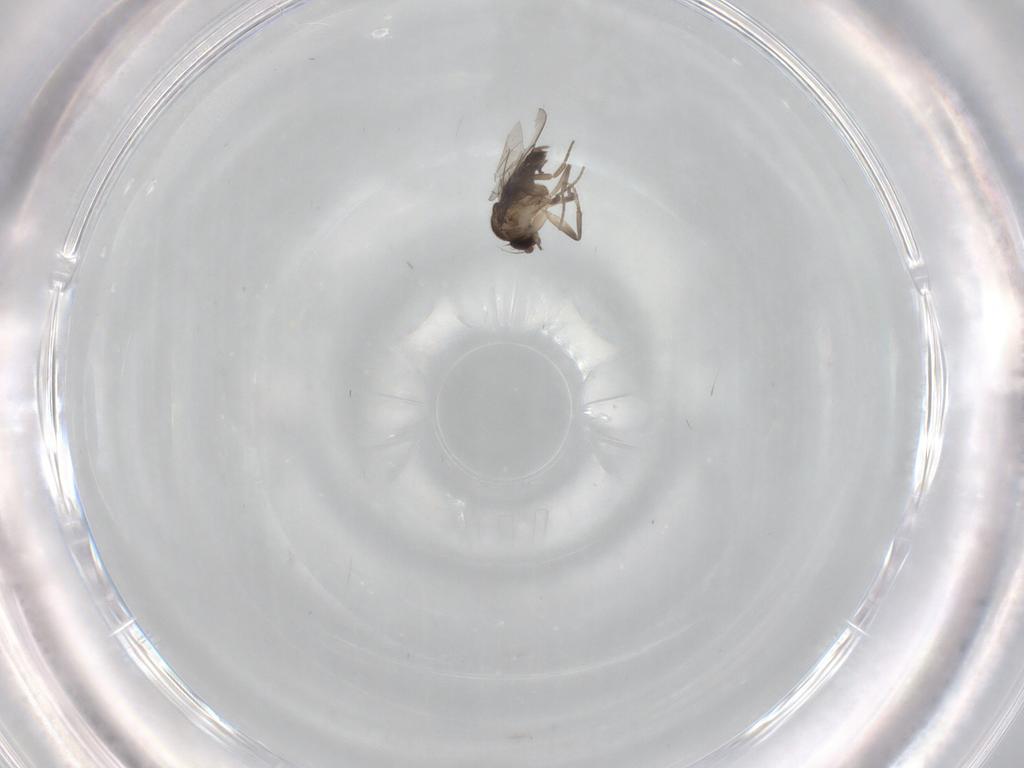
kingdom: Animalia
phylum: Arthropoda
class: Insecta
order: Diptera
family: Phoridae
